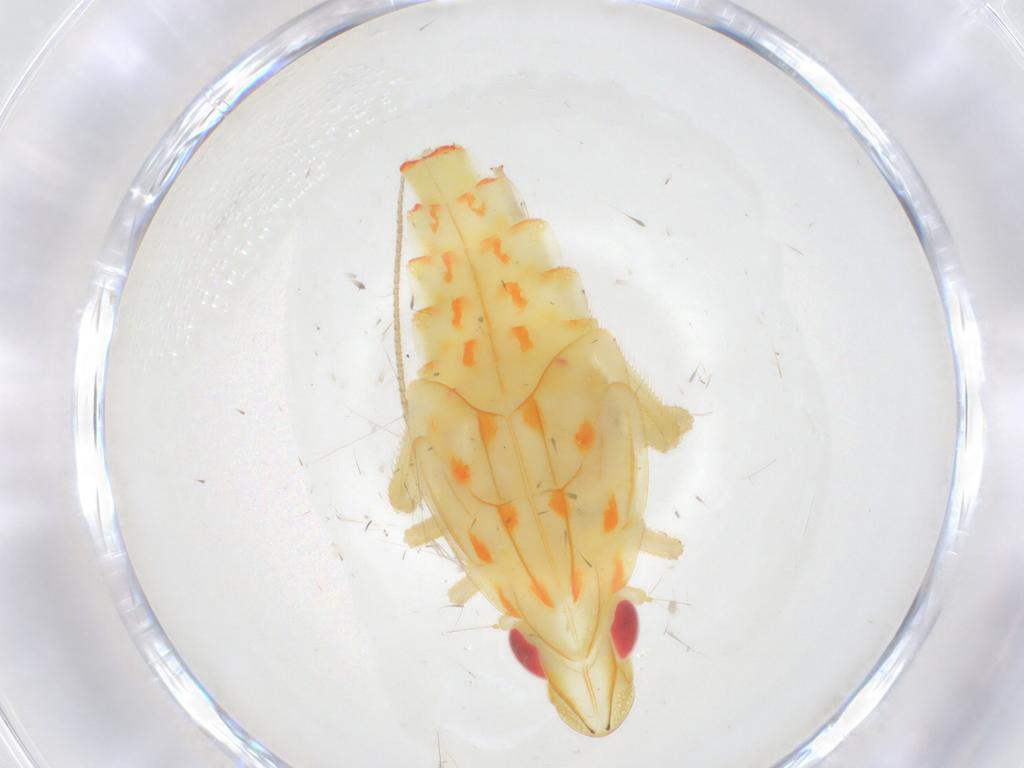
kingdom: Animalia
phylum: Arthropoda
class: Insecta
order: Hemiptera
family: Tropiduchidae
